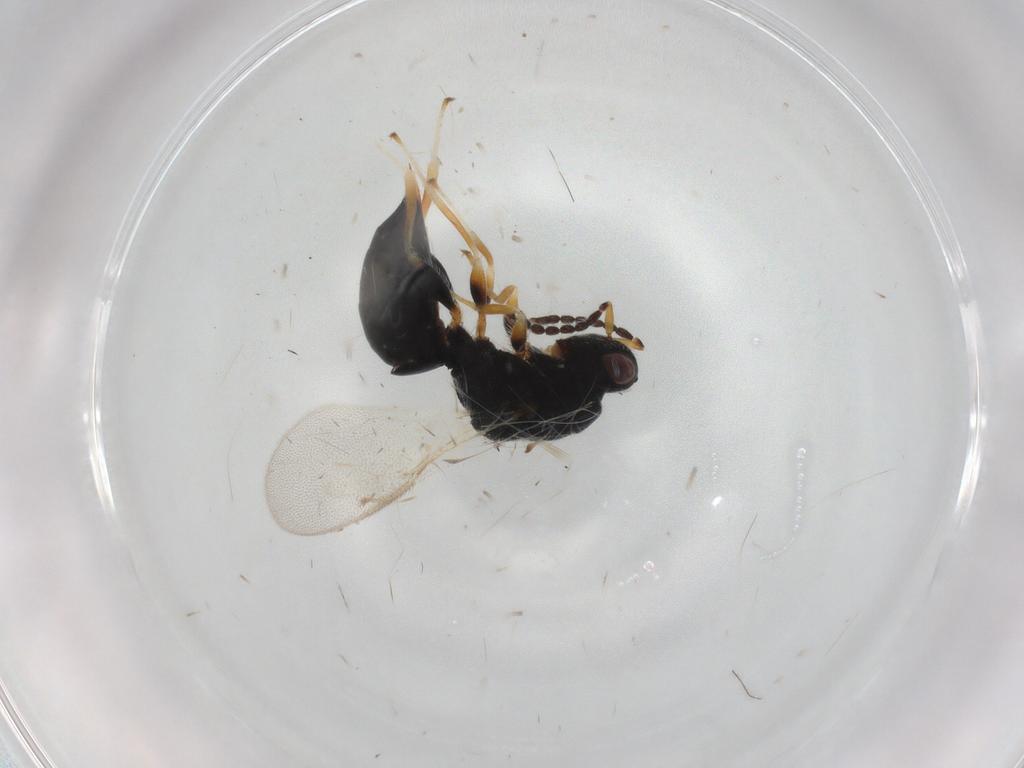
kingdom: Animalia
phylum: Arthropoda
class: Insecta
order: Hymenoptera
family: Eurytomidae
